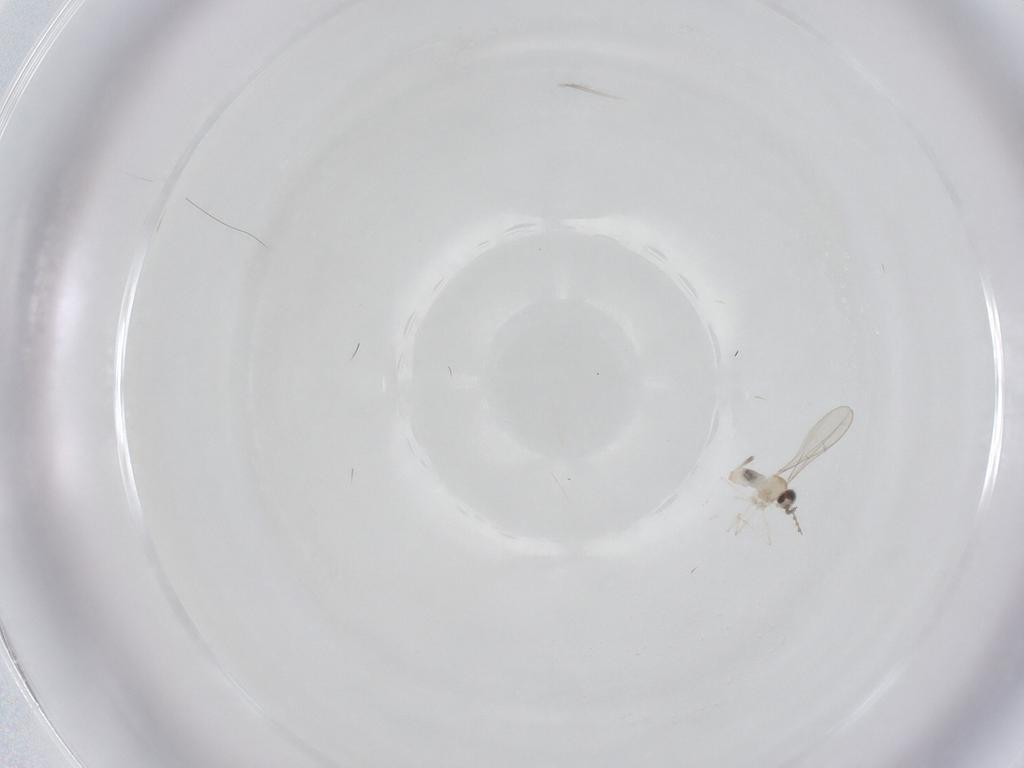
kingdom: Animalia
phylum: Arthropoda
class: Insecta
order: Diptera
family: Cecidomyiidae
